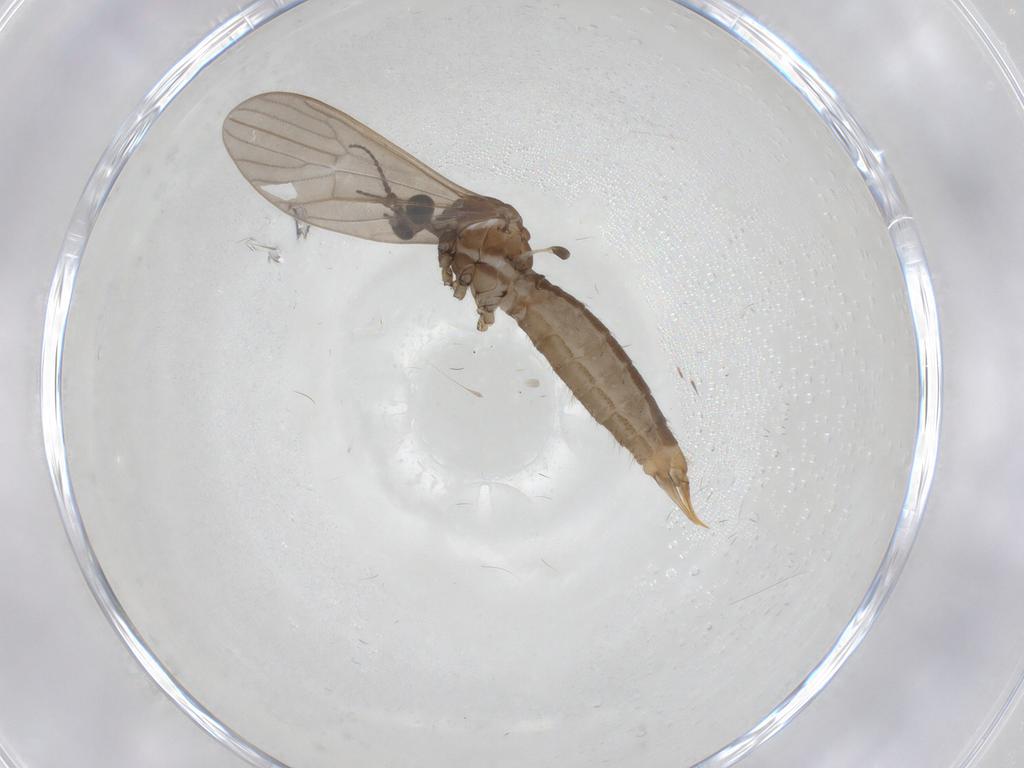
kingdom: Animalia
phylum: Arthropoda
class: Insecta
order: Diptera
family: Limoniidae
